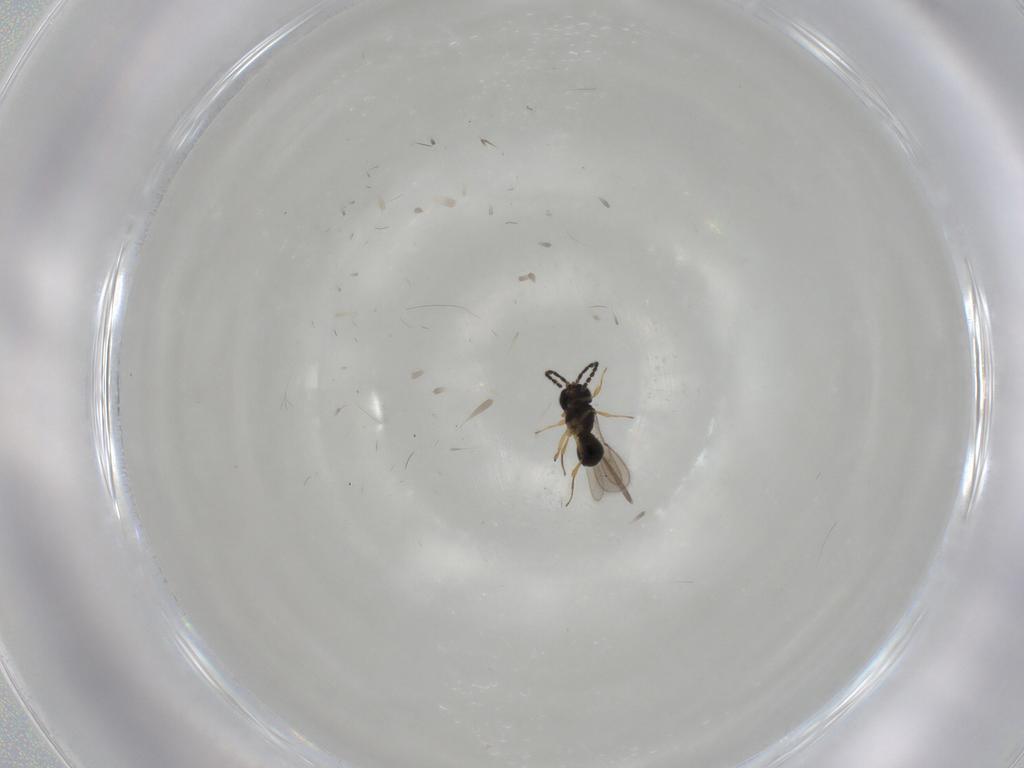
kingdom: Animalia
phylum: Arthropoda
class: Insecta
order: Hymenoptera
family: Scelionidae
